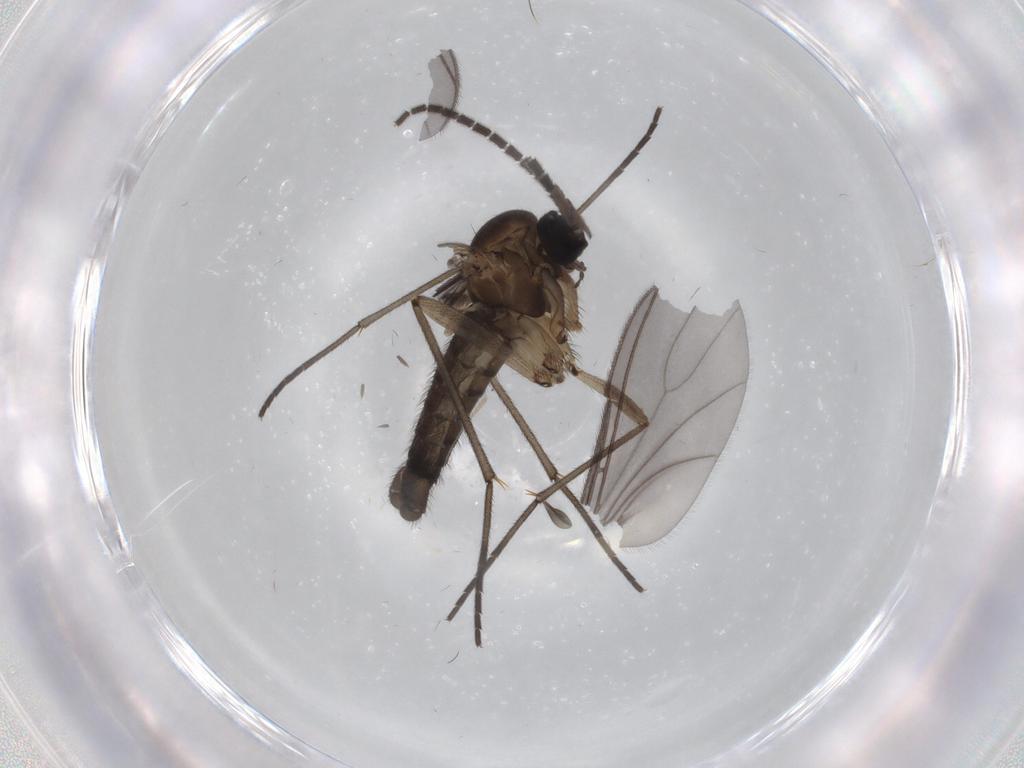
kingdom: Animalia
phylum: Arthropoda
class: Insecta
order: Diptera
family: Sciaridae
